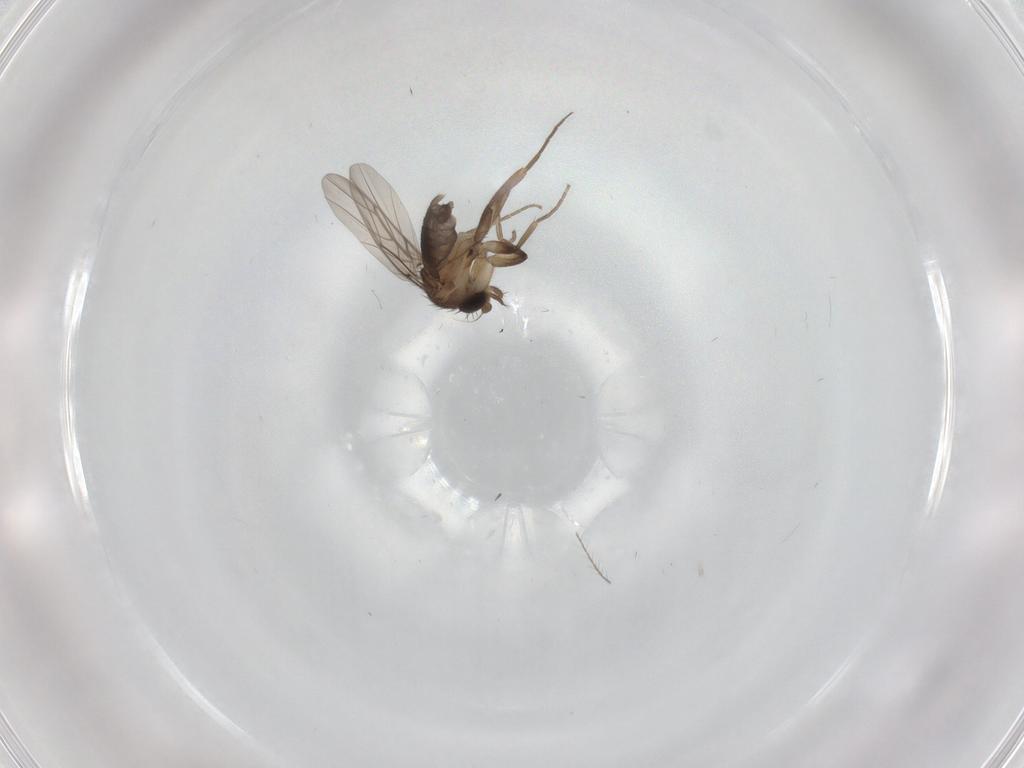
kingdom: Animalia
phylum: Arthropoda
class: Insecta
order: Diptera
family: Phoridae
